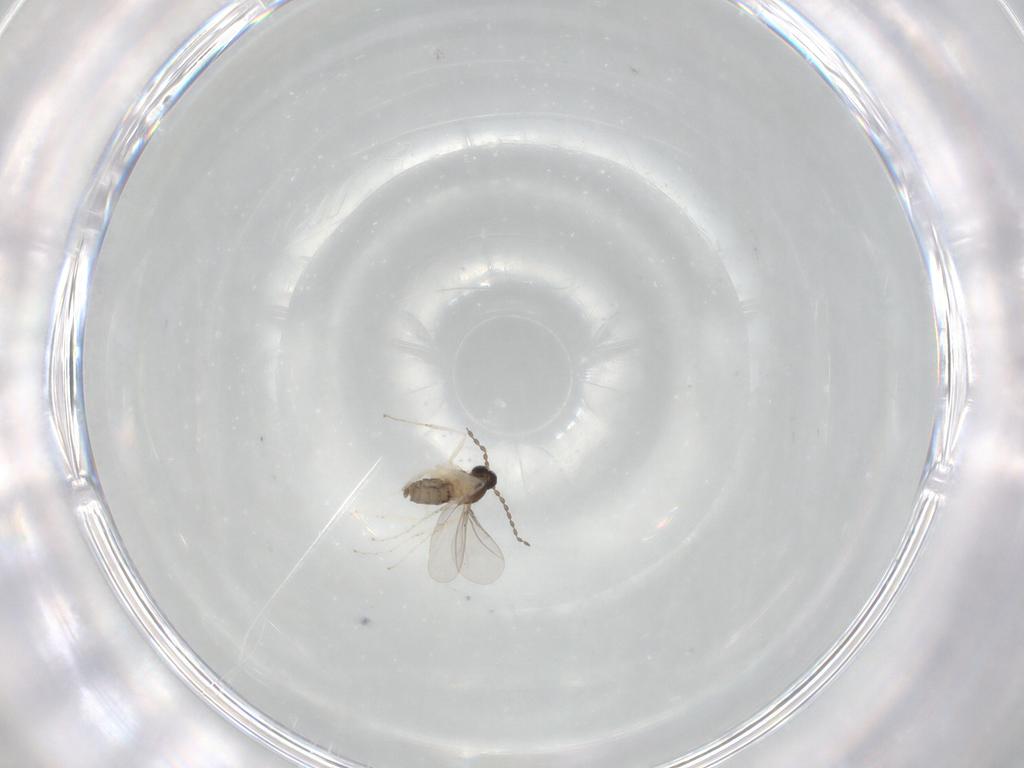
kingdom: Animalia
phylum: Arthropoda
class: Insecta
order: Diptera
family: Cecidomyiidae
